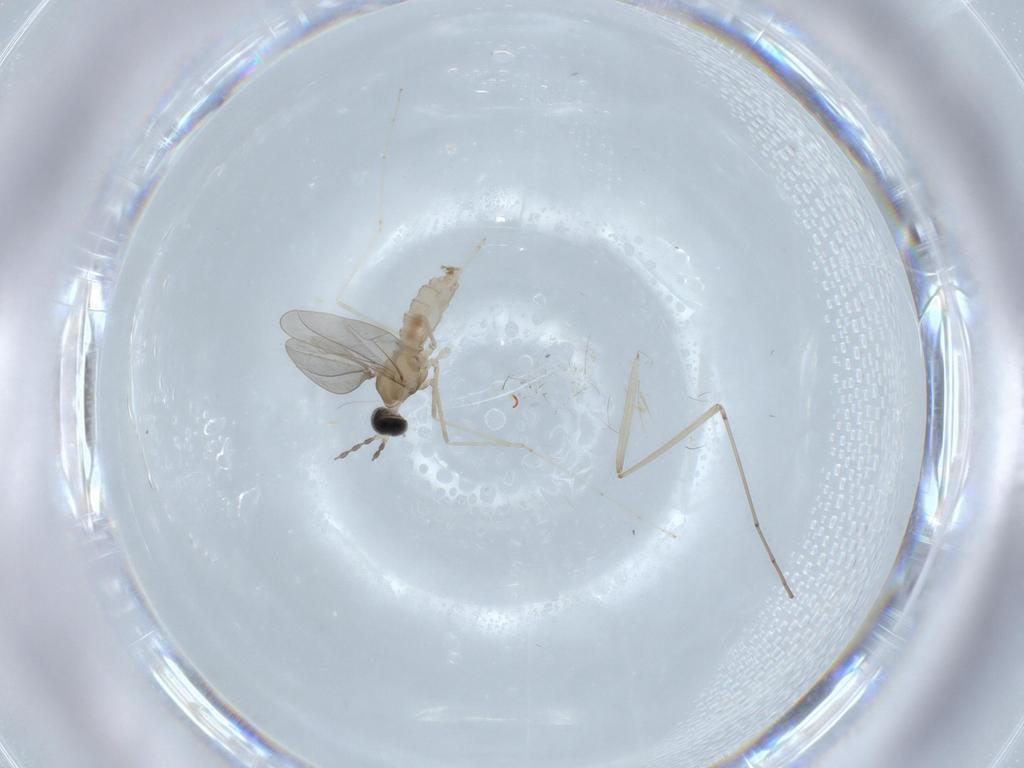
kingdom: Animalia
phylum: Arthropoda
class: Insecta
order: Diptera
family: Cecidomyiidae
